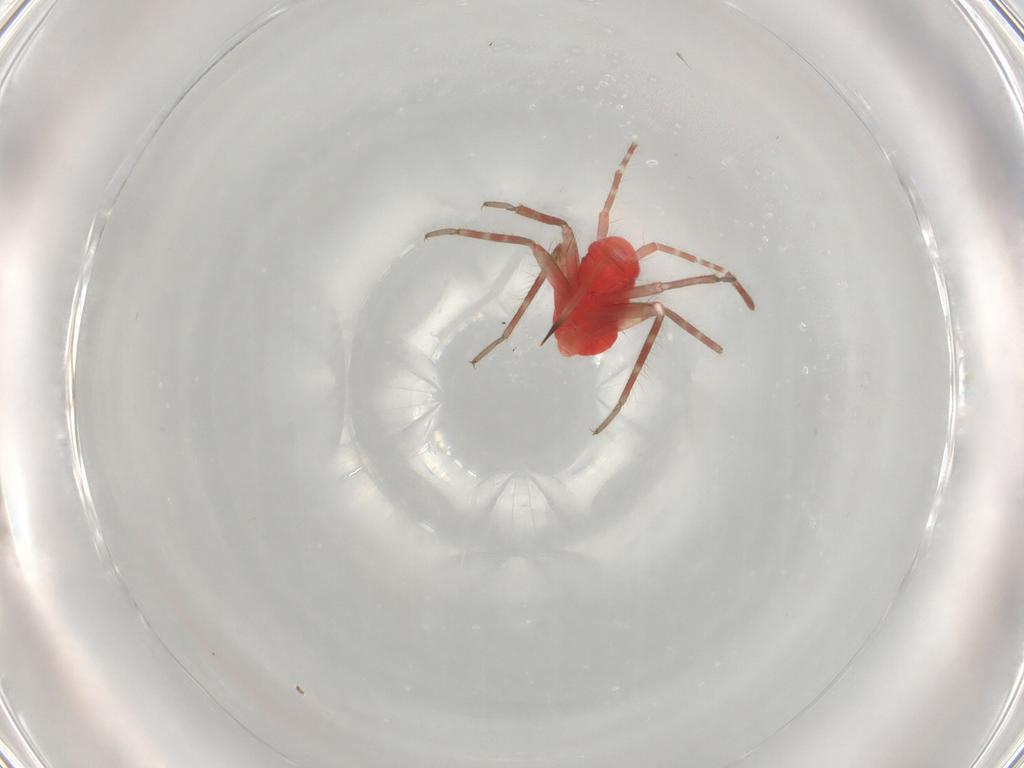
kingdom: Animalia
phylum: Arthropoda
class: Insecta
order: Hemiptera
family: Miridae
